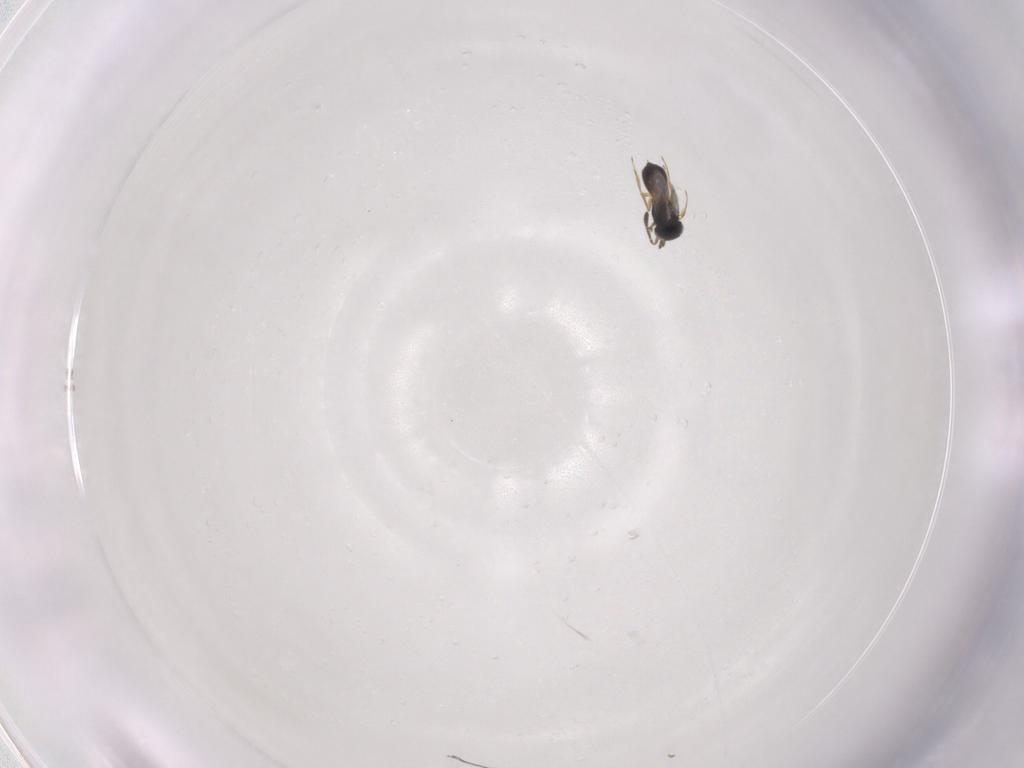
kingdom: Animalia
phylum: Arthropoda
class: Insecta
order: Hymenoptera
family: Scelionidae
